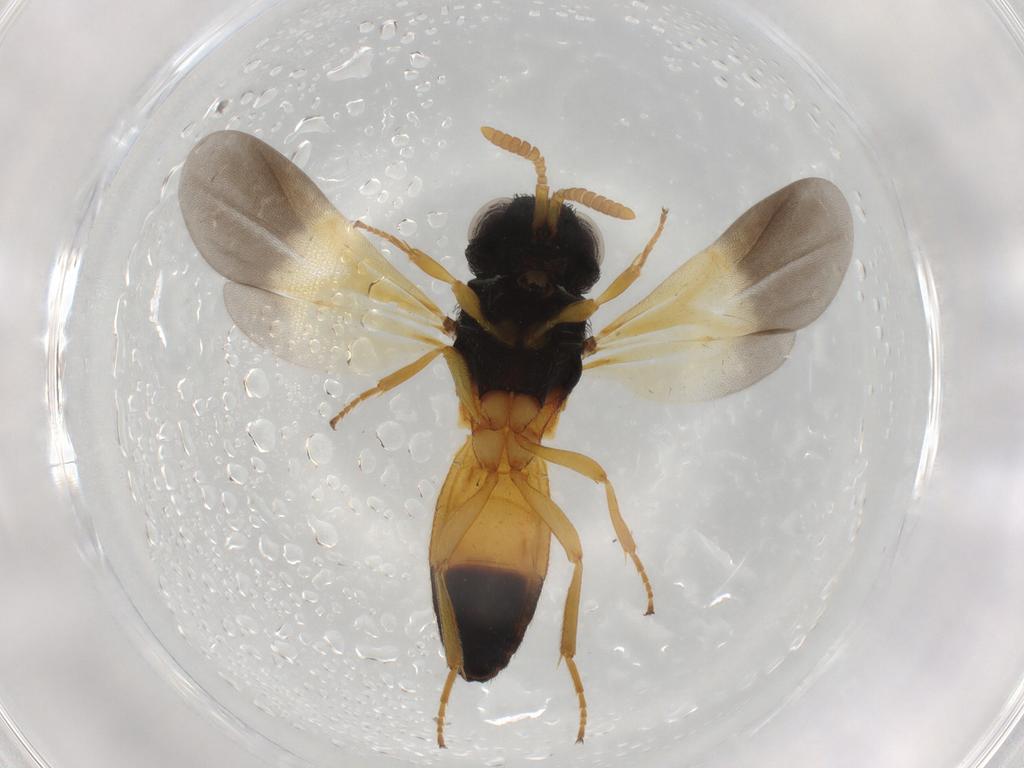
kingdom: Animalia
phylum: Arthropoda
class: Insecta
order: Hymenoptera
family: Scelionidae
